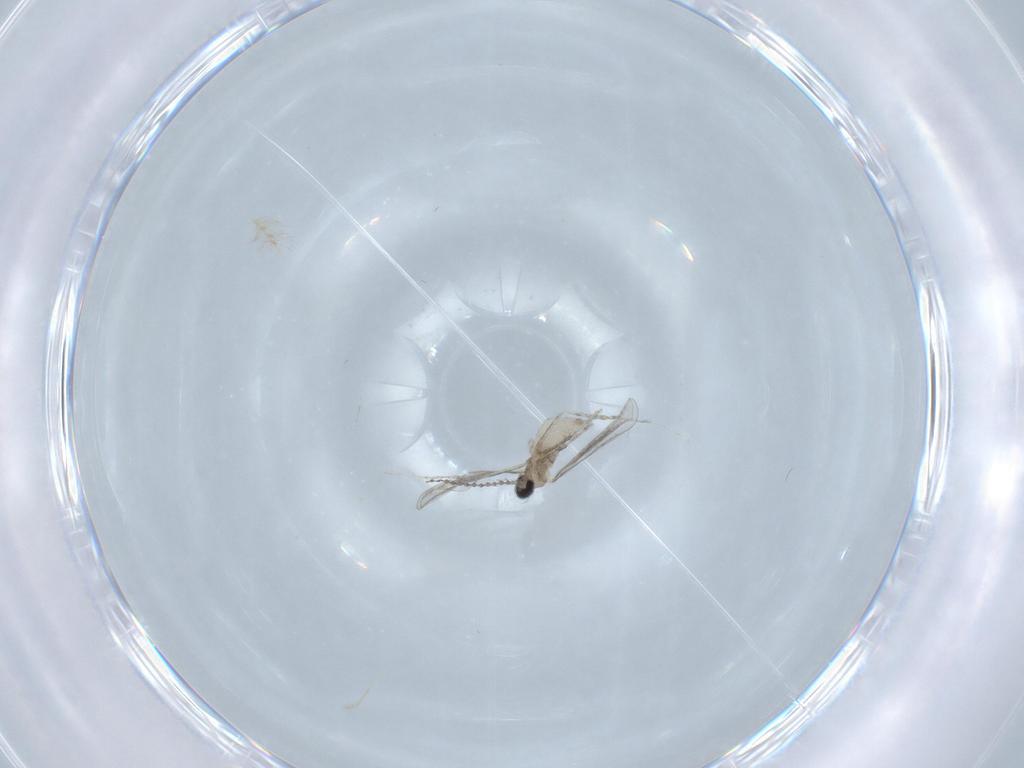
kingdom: Animalia
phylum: Arthropoda
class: Insecta
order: Diptera
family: Cecidomyiidae
